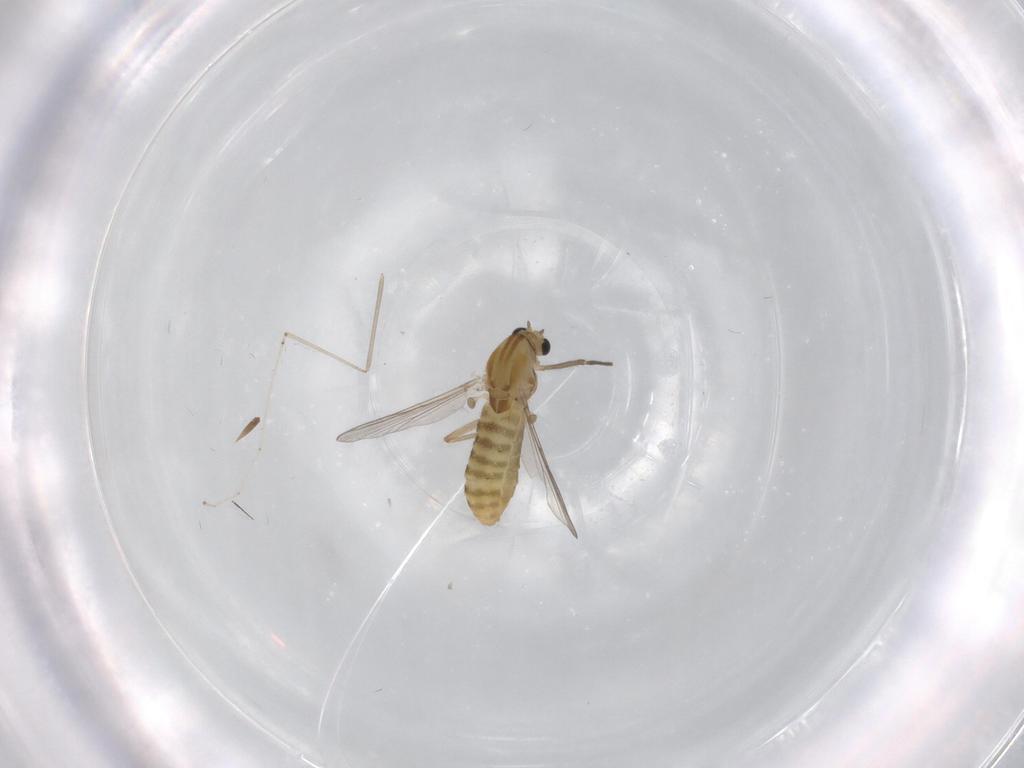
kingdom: Animalia
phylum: Arthropoda
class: Insecta
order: Diptera
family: Chironomidae
